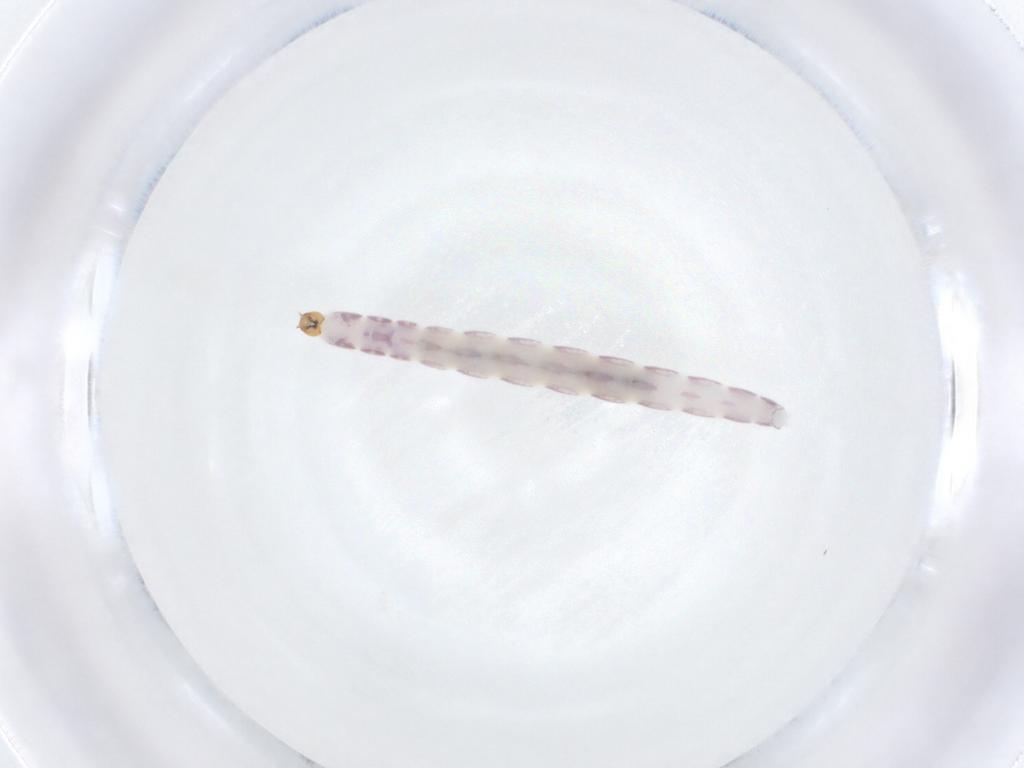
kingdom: Animalia
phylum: Arthropoda
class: Insecta
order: Diptera
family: Chironomidae
